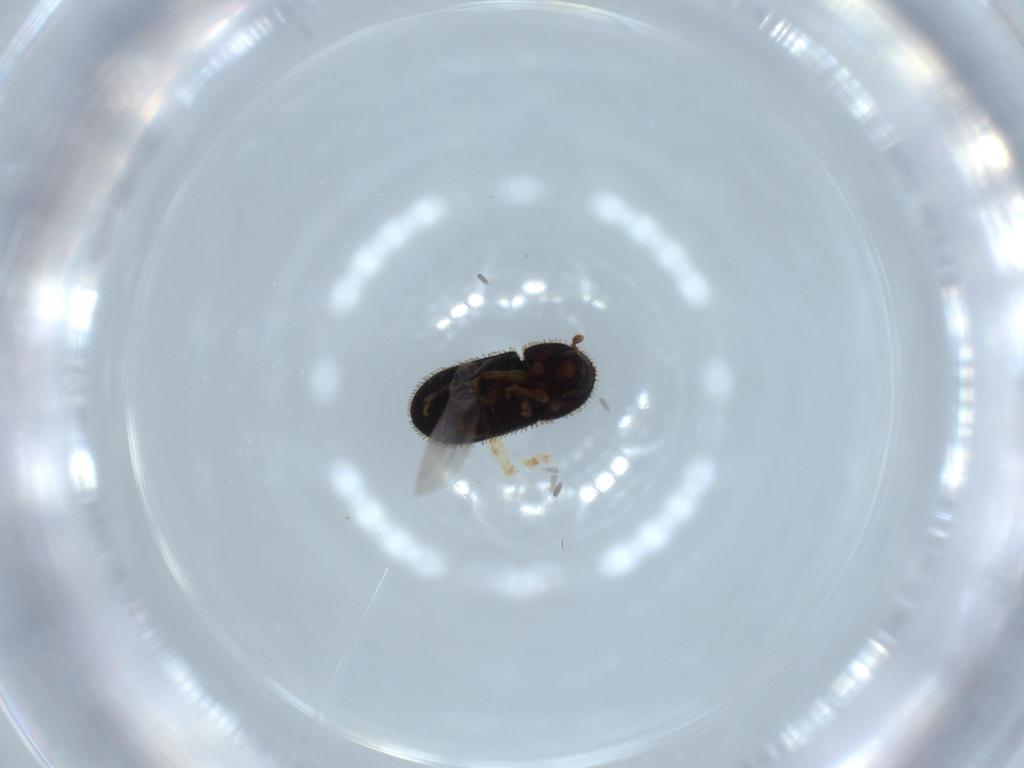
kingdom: Animalia
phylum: Arthropoda
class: Insecta
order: Coleoptera
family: Curculionidae
